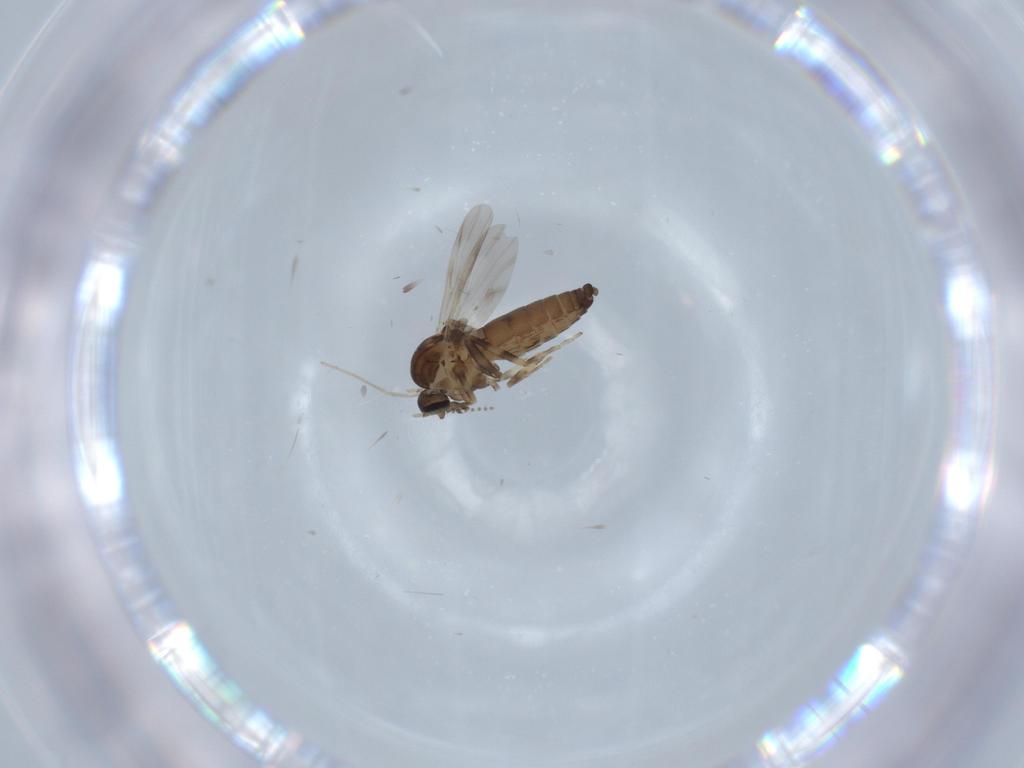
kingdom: Animalia
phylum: Arthropoda
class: Insecta
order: Diptera
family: Ceratopogonidae
